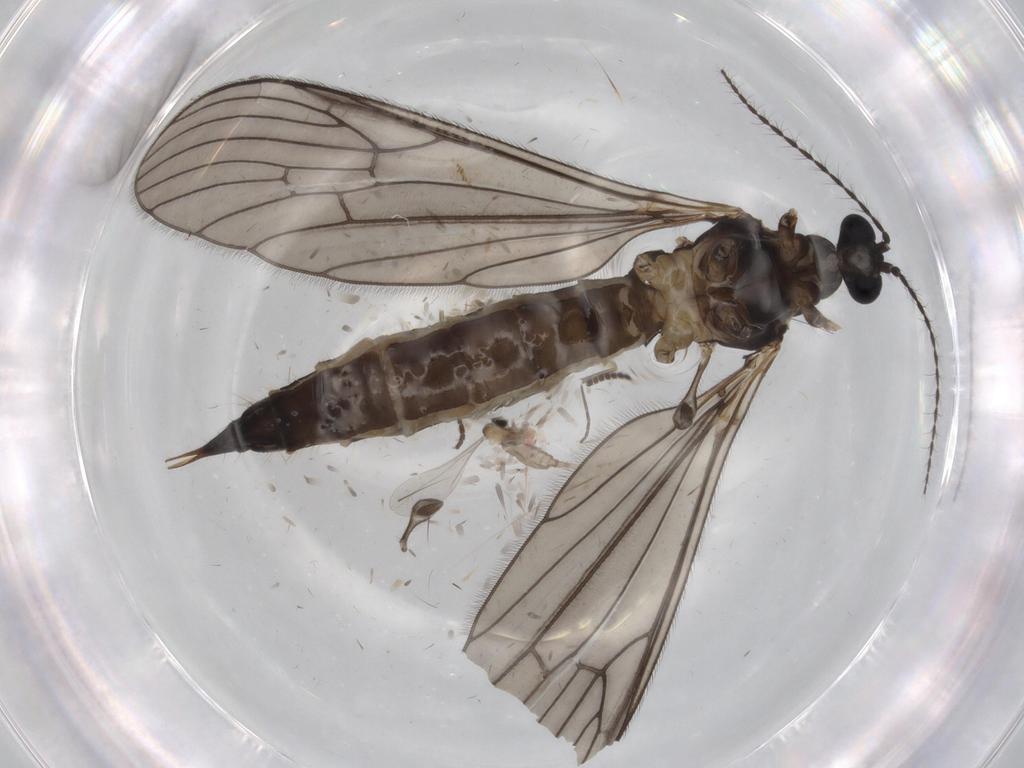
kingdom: Animalia
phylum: Arthropoda
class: Insecta
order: Diptera
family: Limoniidae
